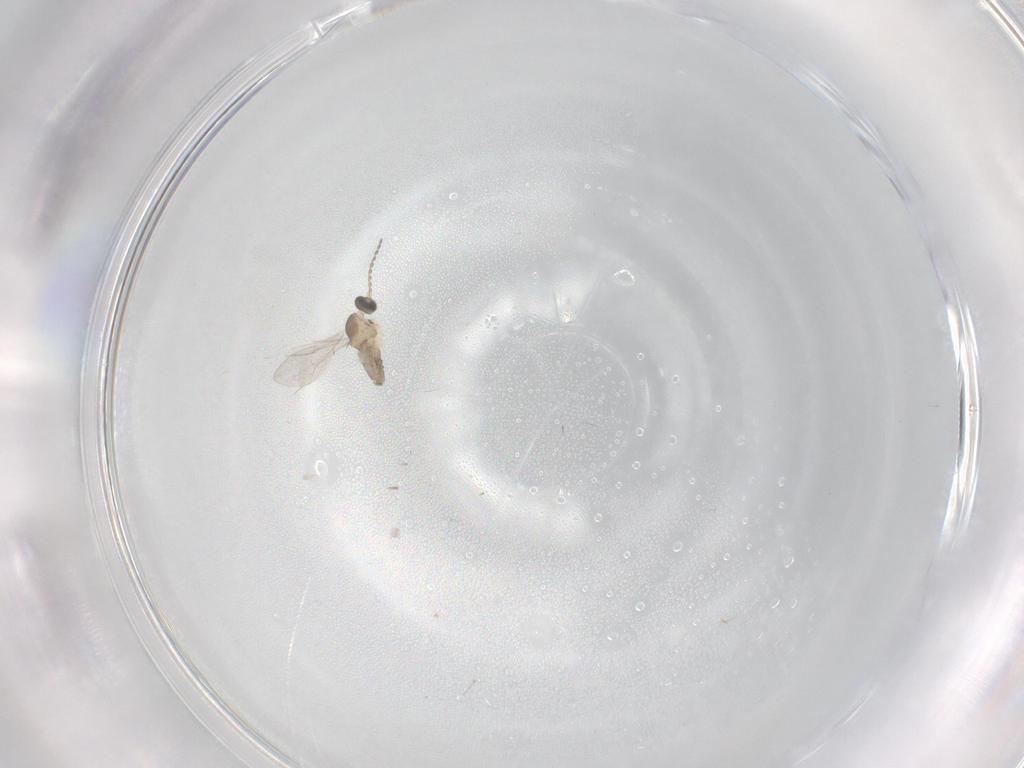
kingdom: Animalia
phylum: Arthropoda
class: Insecta
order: Diptera
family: Cecidomyiidae
